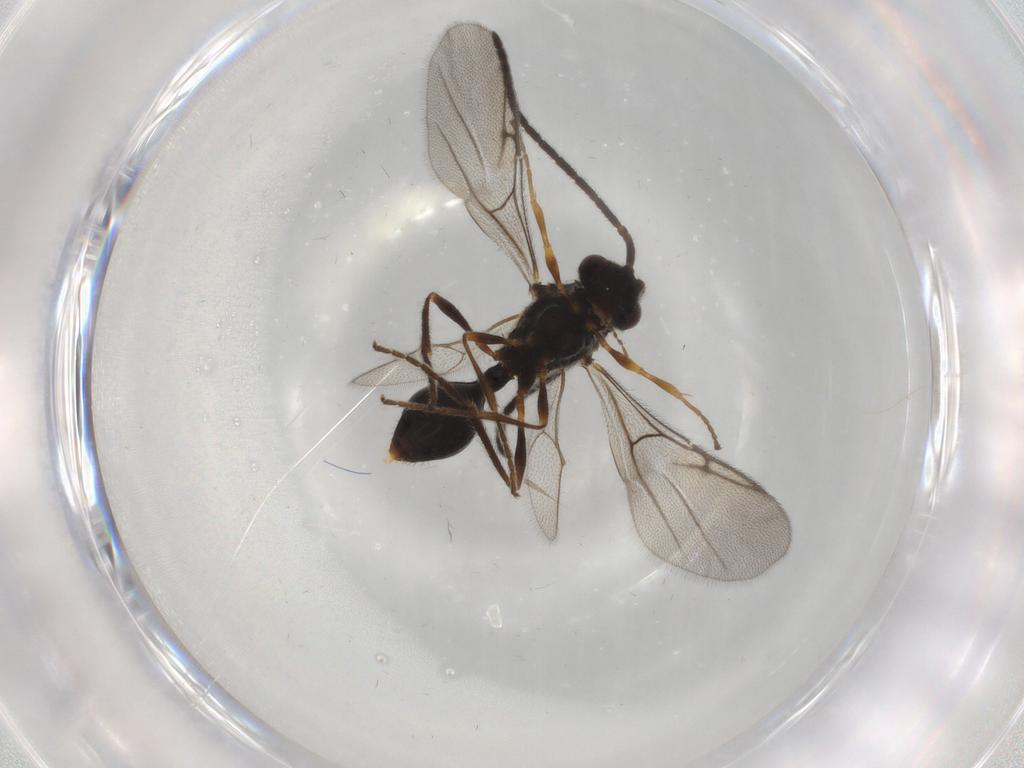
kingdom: Animalia
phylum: Arthropoda
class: Insecta
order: Hymenoptera
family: Diapriidae
